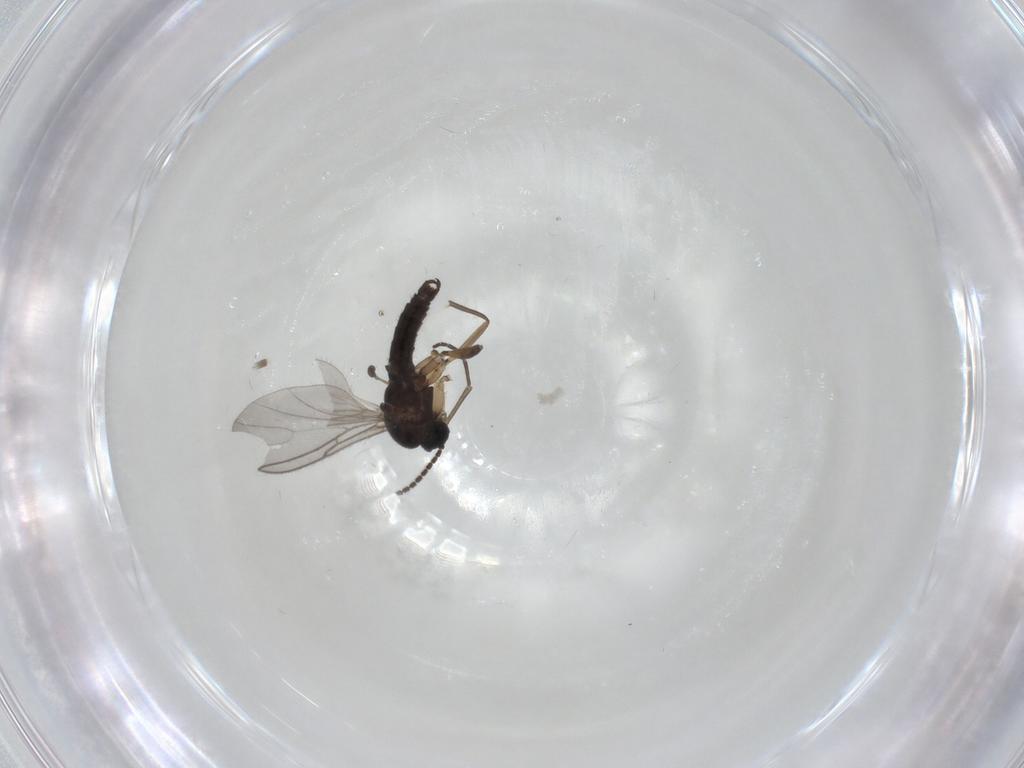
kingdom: Animalia
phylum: Arthropoda
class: Insecta
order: Diptera
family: Sciaridae
